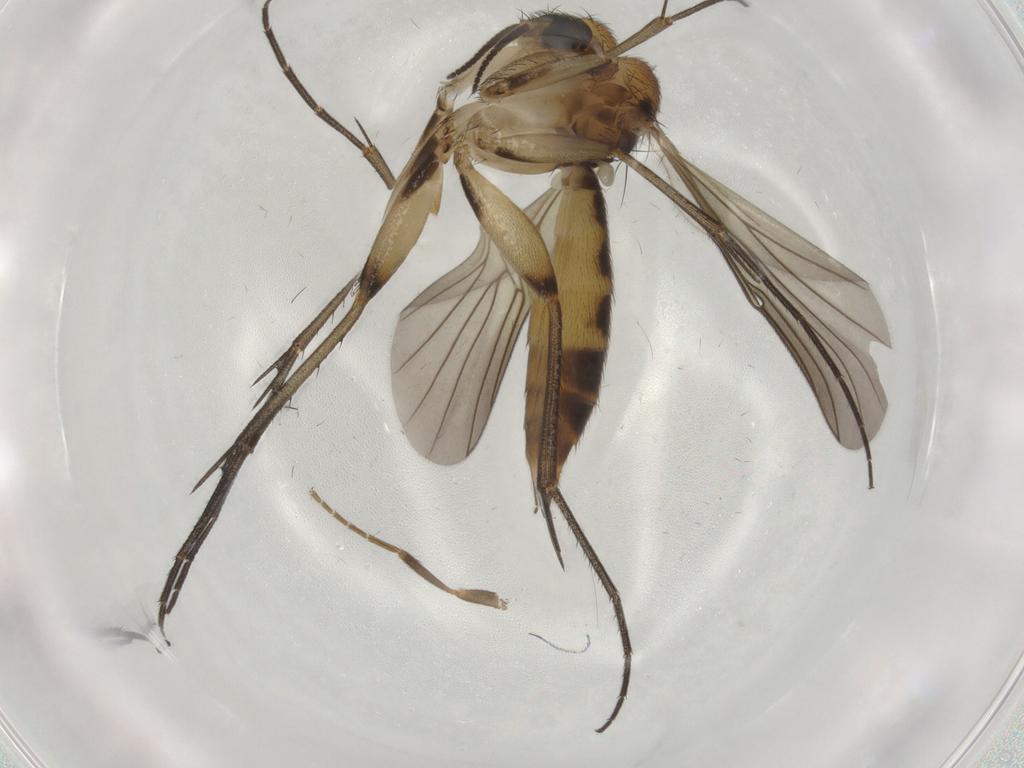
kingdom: Animalia
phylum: Arthropoda
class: Insecta
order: Diptera
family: Mycetophilidae
